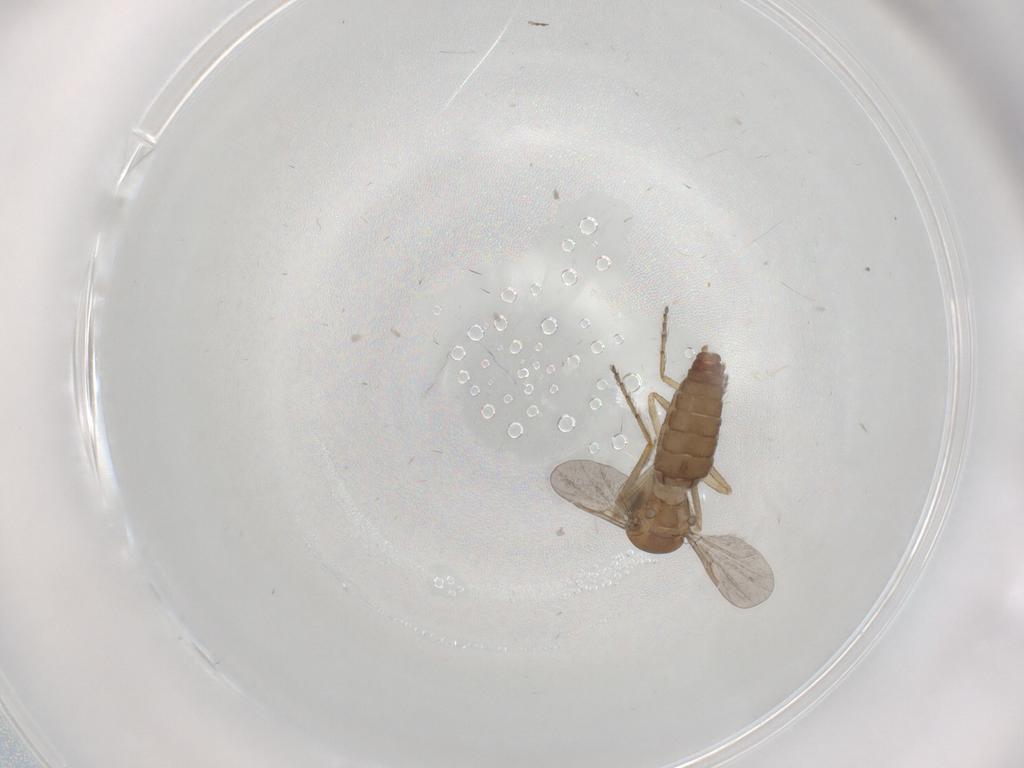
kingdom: Animalia
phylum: Arthropoda
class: Insecta
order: Diptera
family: Ceratopogonidae
